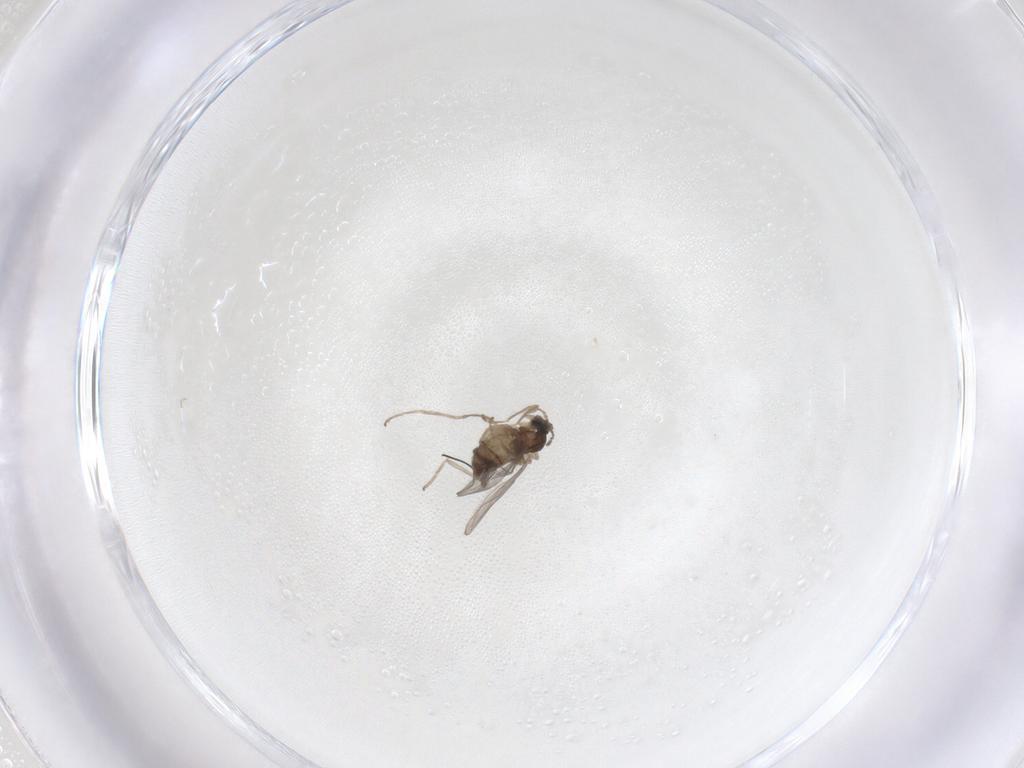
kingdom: Animalia
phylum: Arthropoda
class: Insecta
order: Diptera
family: Cecidomyiidae
